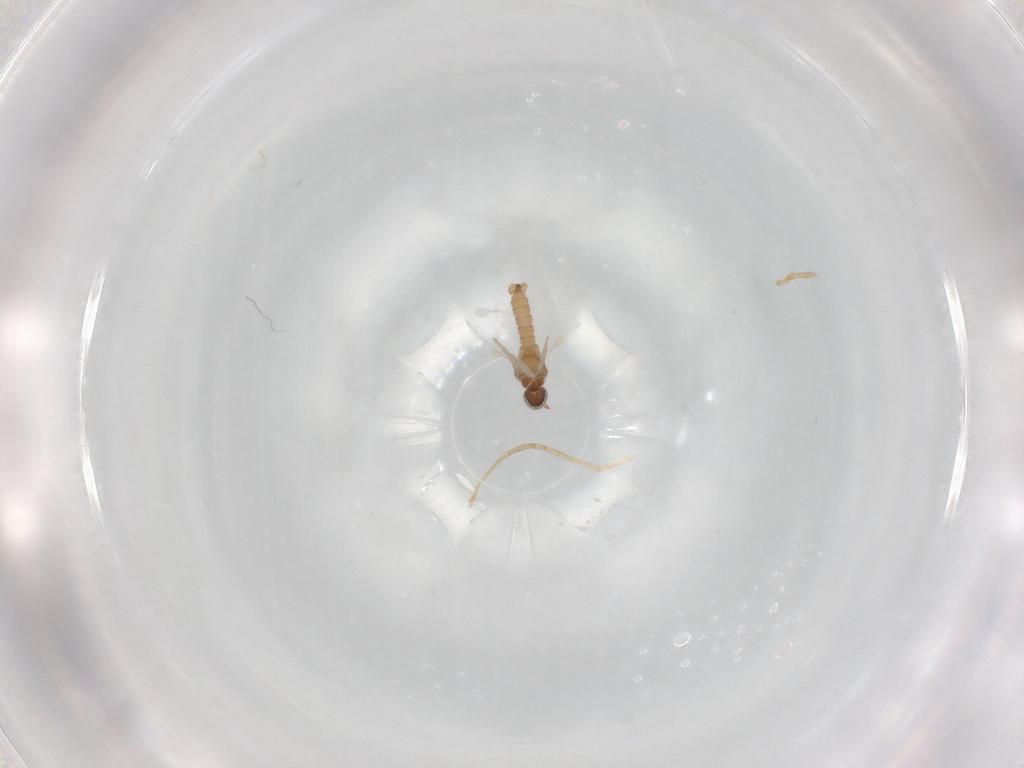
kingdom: Animalia
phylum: Arthropoda
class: Insecta
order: Diptera
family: Cecidomyiidae
